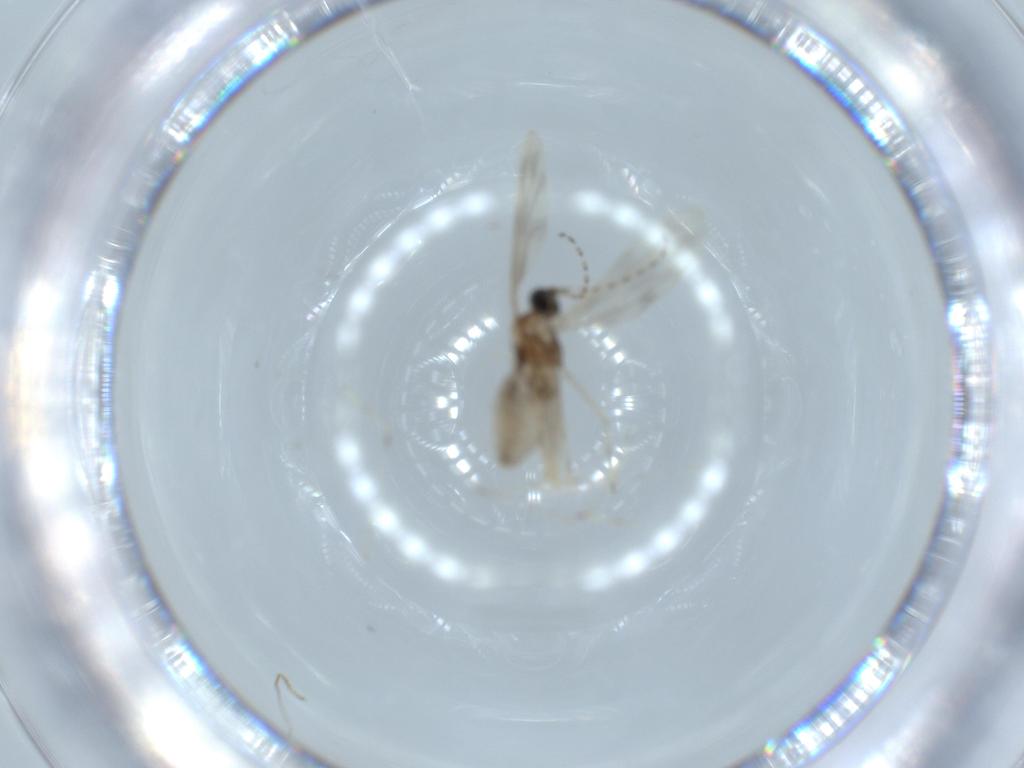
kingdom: Animalia
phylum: Arthropoda
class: Insecta
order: Diptera
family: Cecidomyiidae
